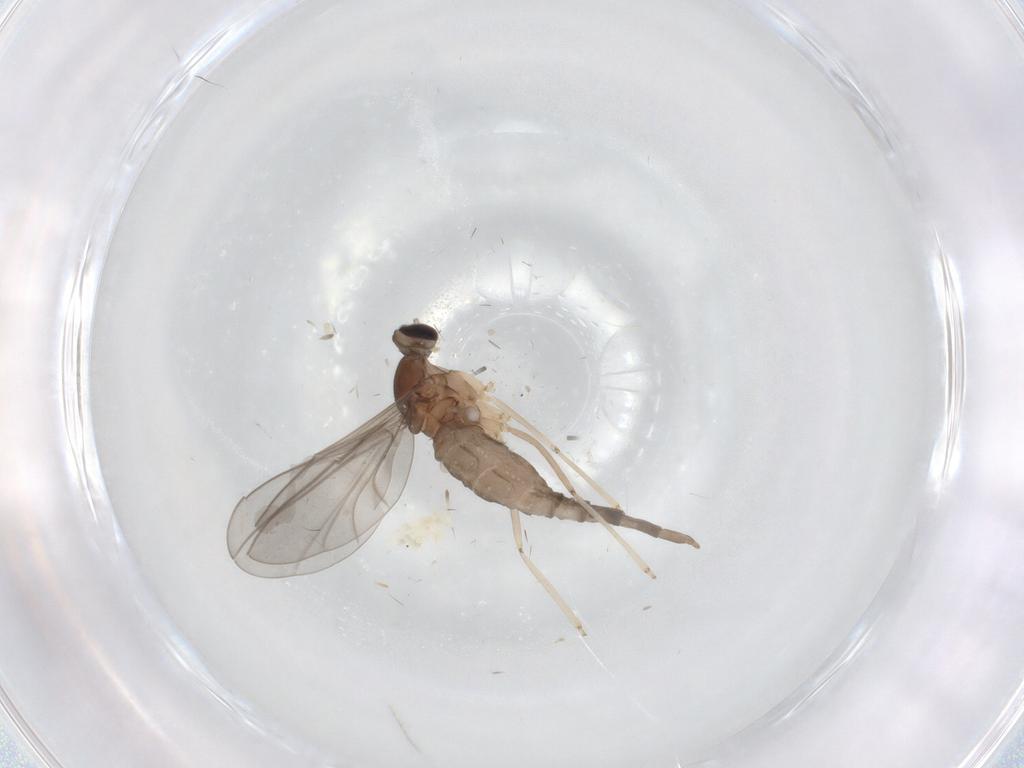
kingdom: Animalia
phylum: Arthropoda
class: Insecta
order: Diptera
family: Cecidomyiidae
